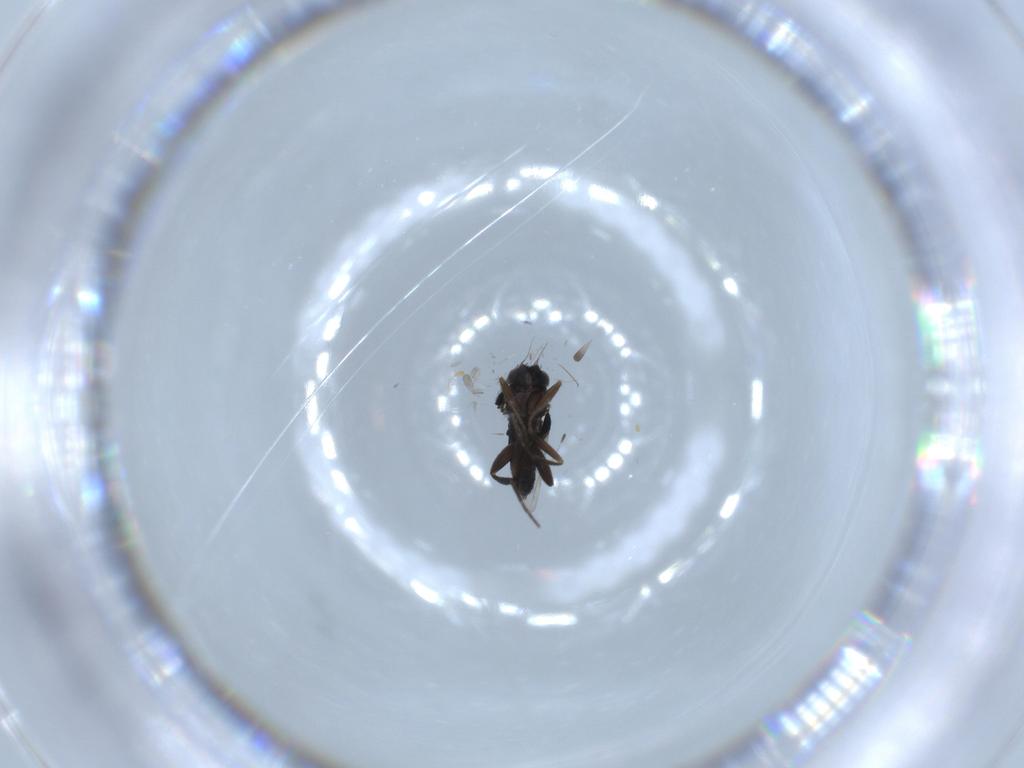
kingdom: Animalia
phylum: Arthropoda
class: Insecta
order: Diptera
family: Phoridae
